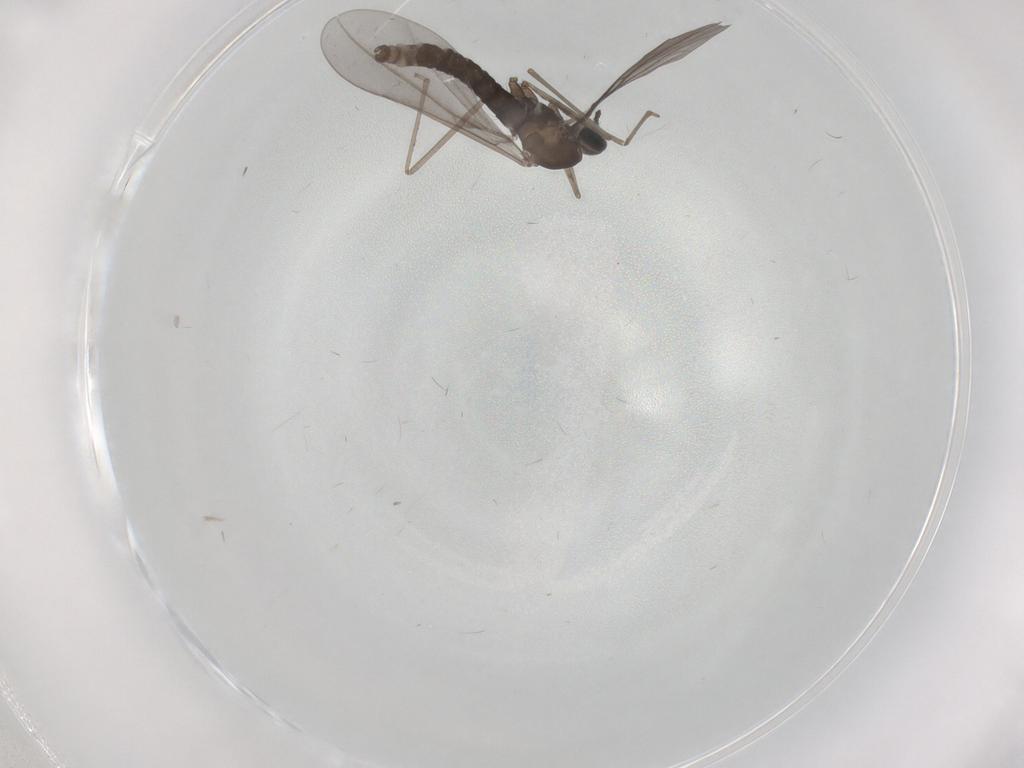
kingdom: Animalia
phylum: Arthropoda
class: Insecta
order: Diptera
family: Cecidomyiidae
